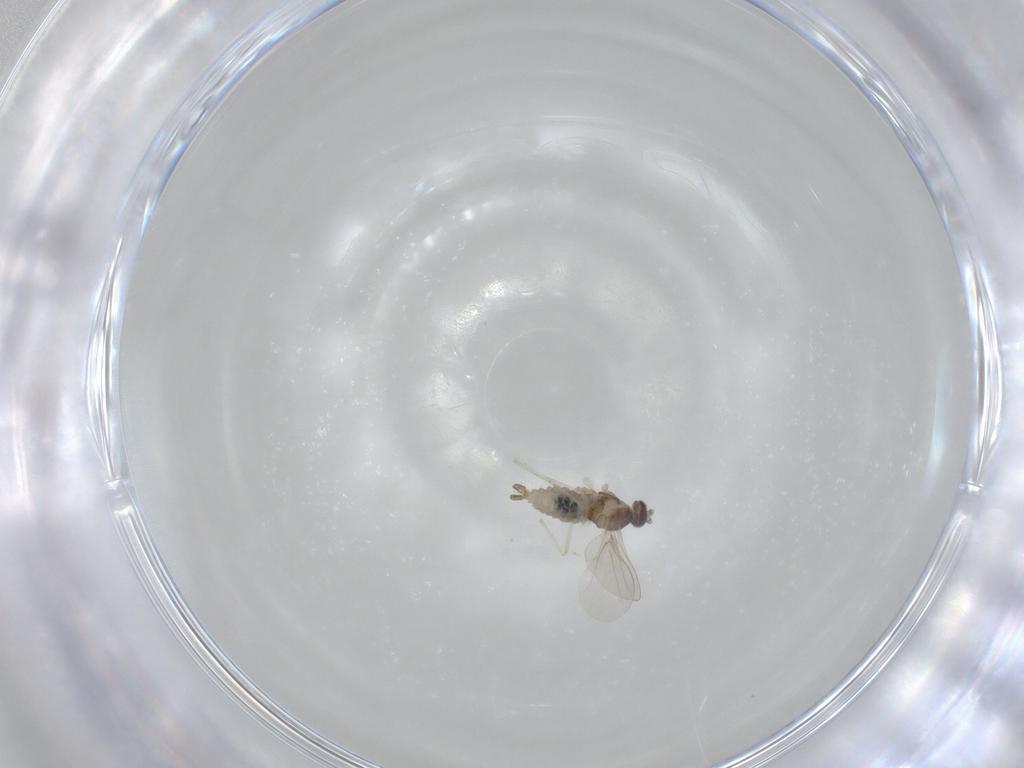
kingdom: Animalia
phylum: Arthropoda
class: Insecta
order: Diptera
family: Cecidomyiidae
